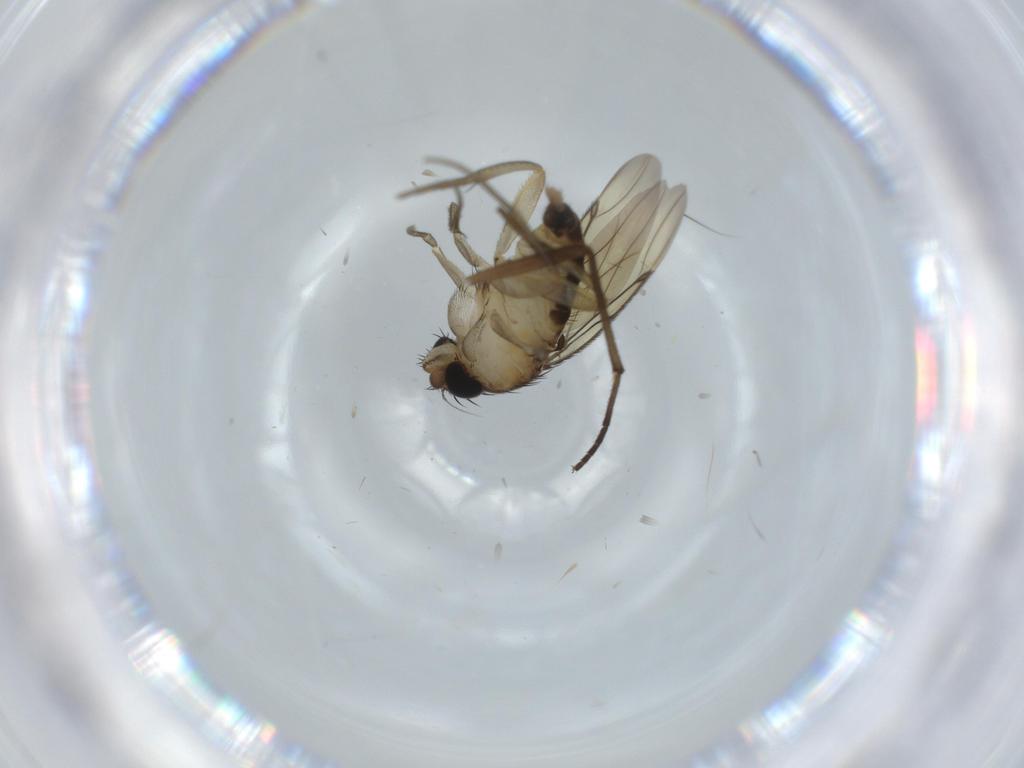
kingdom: Animalia
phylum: Arthropoda
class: Insecta
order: Diptera
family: Phoridae
